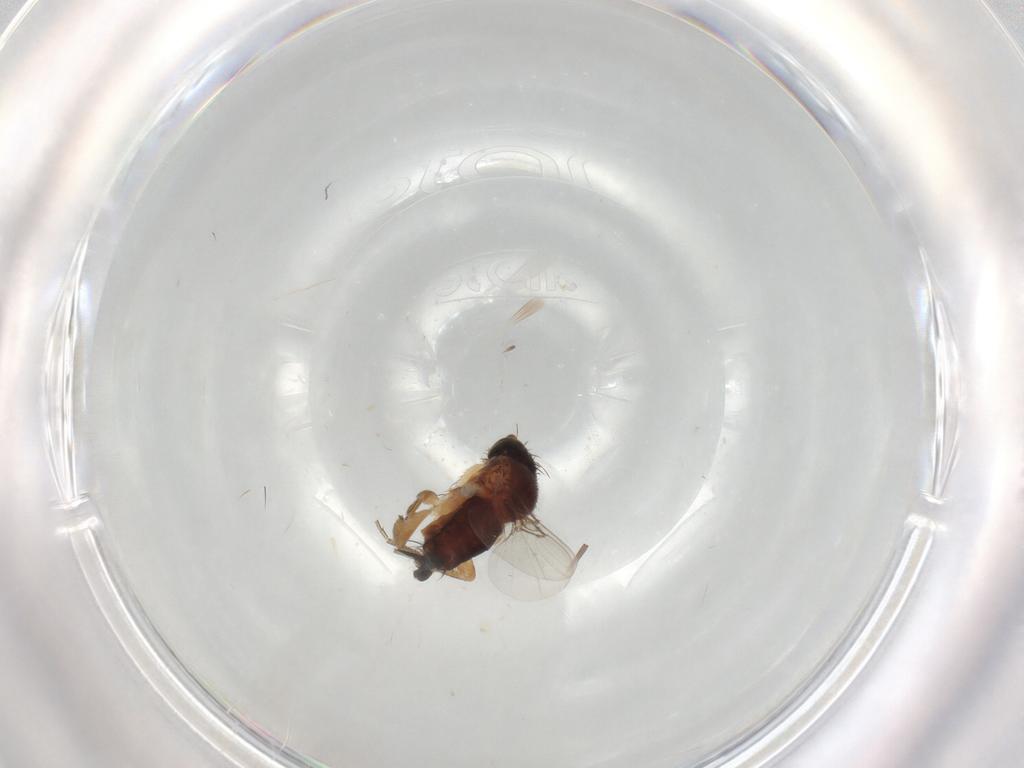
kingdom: Animalia
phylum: Arthropoda
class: Insecta
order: Diptera
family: Ceratopogonidae
